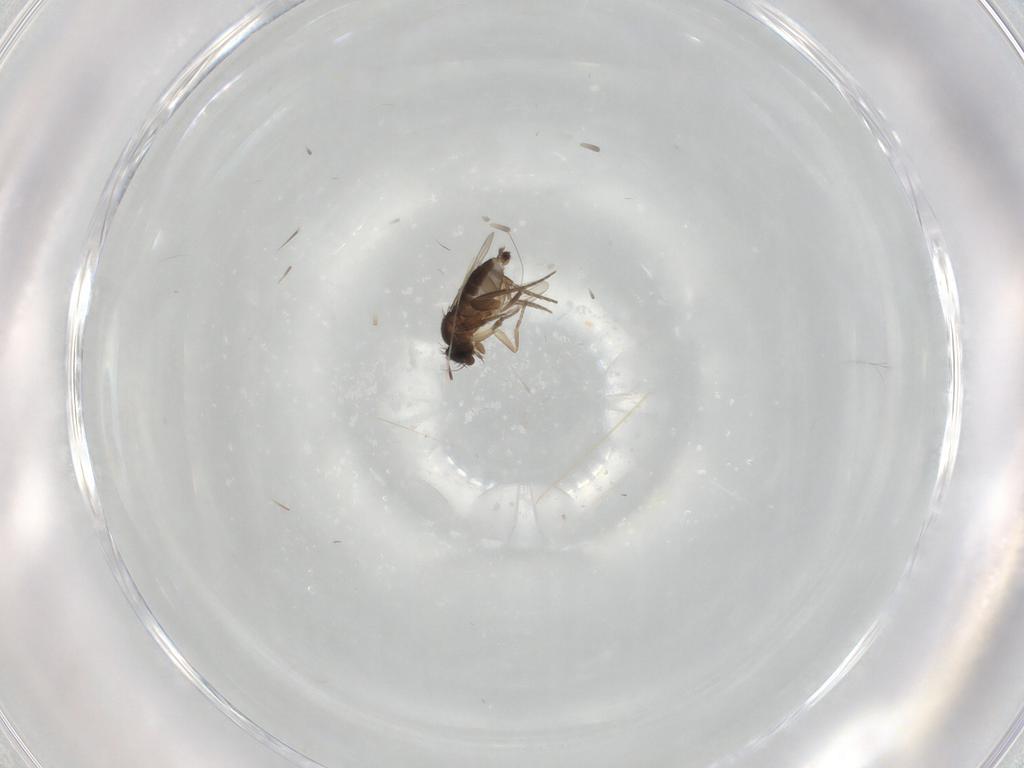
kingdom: Animalia
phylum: Arthropoda
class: Insecta
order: Diptera
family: Phoridae
